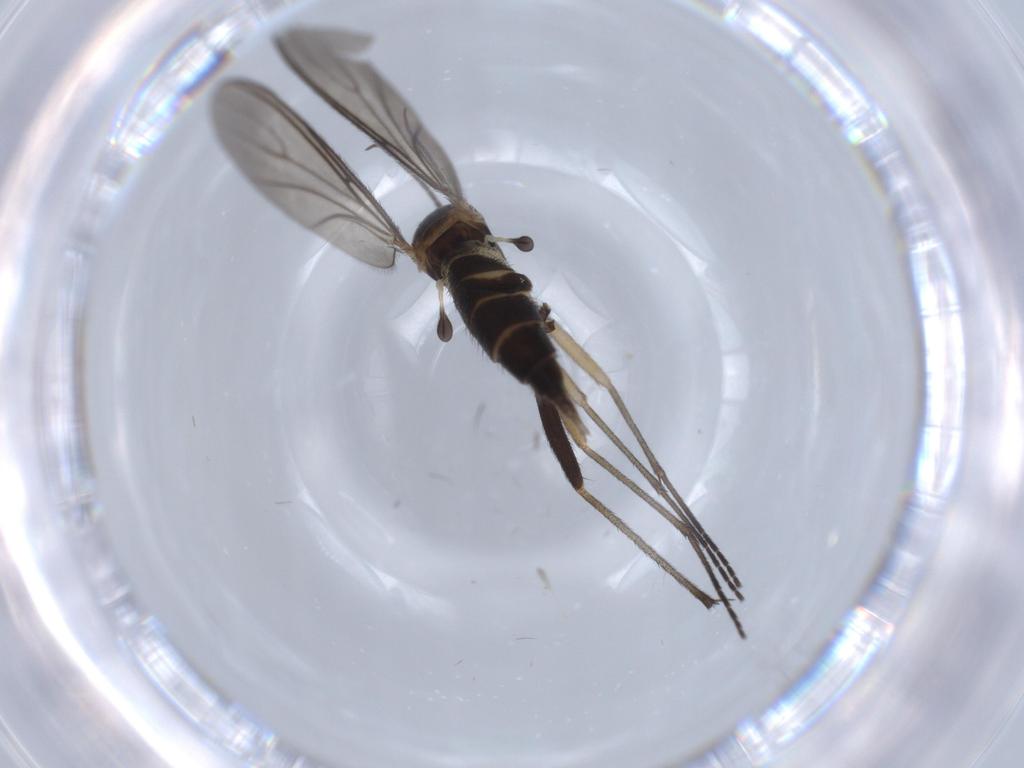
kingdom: Animalia
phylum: Arthropoda
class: Insecta
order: Diptera
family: Sciaridae
